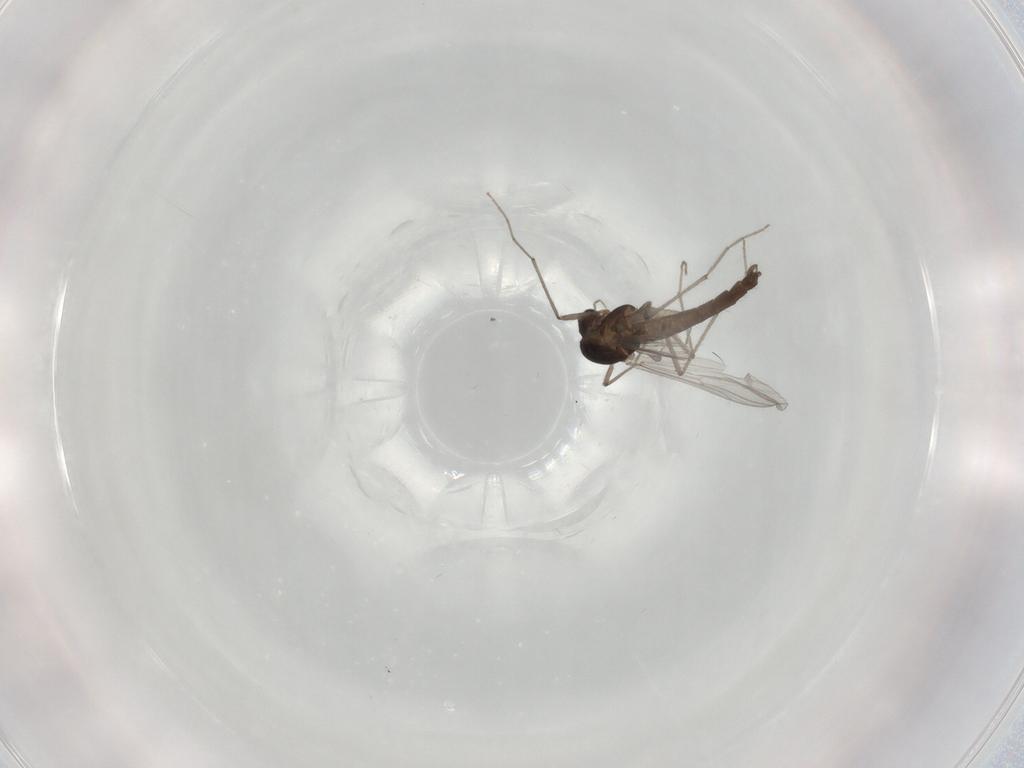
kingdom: Animalia
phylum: Arthropoda
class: Insecta
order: Diptera
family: Chironomidae
